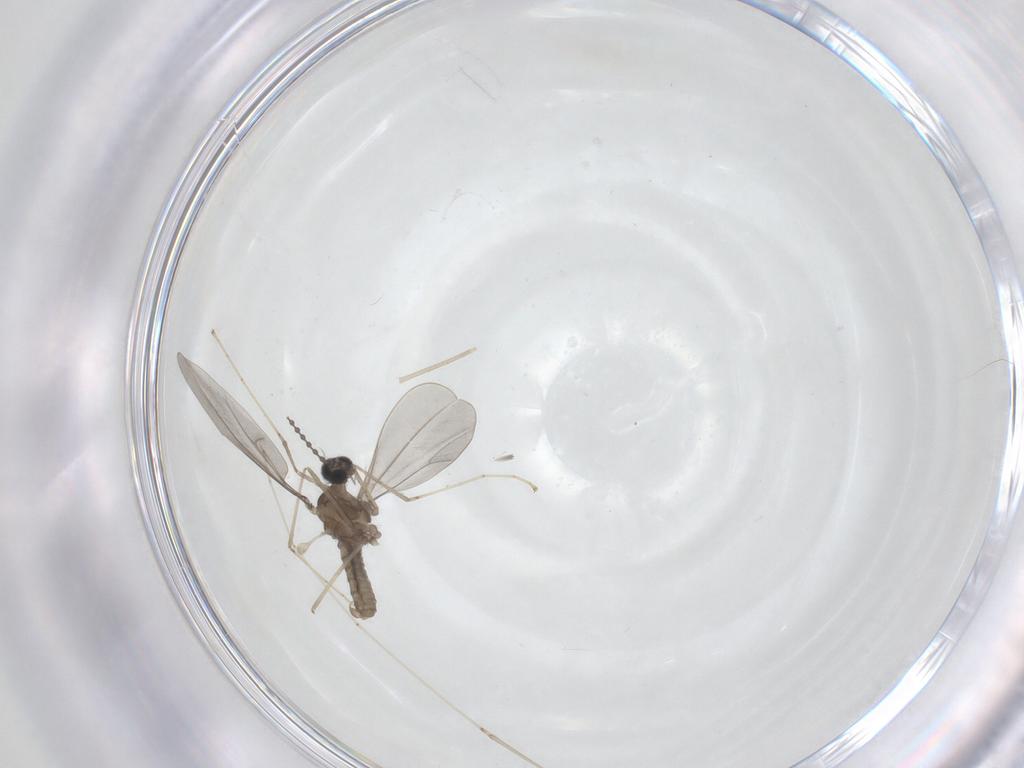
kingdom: Animalia
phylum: Arthropoda
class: Insecta
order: Diptera
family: Cecidomyiidae
